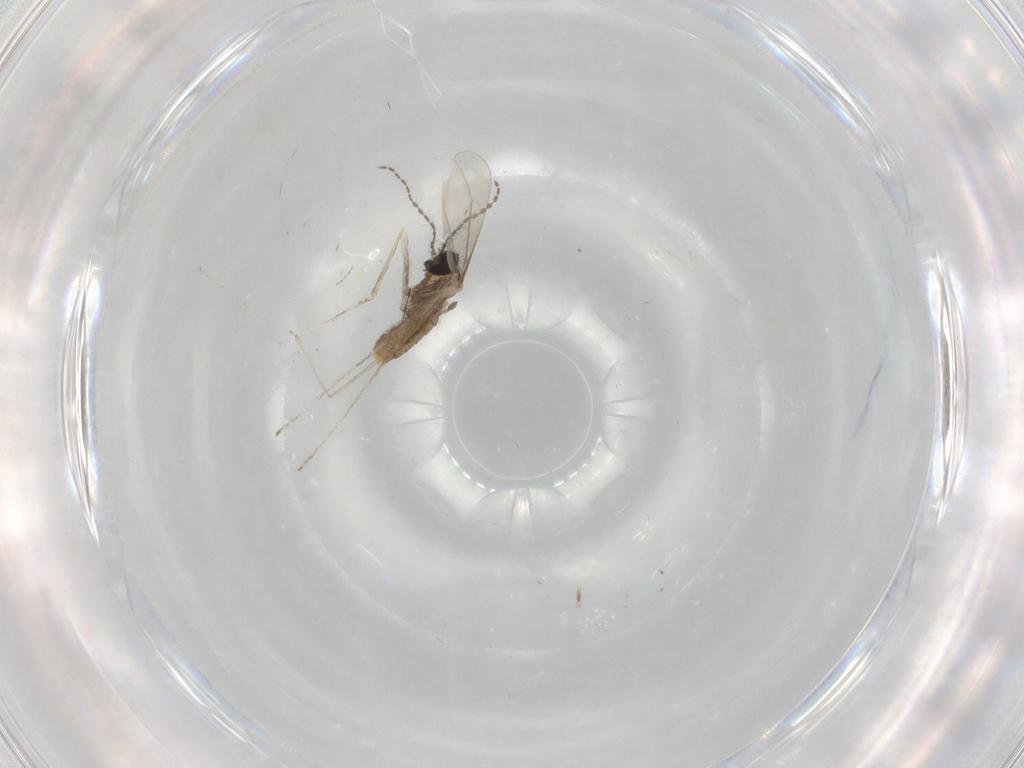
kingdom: Animalia
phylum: Arthropoda
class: Insecta
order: Diptera
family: Cecidomyiidae
